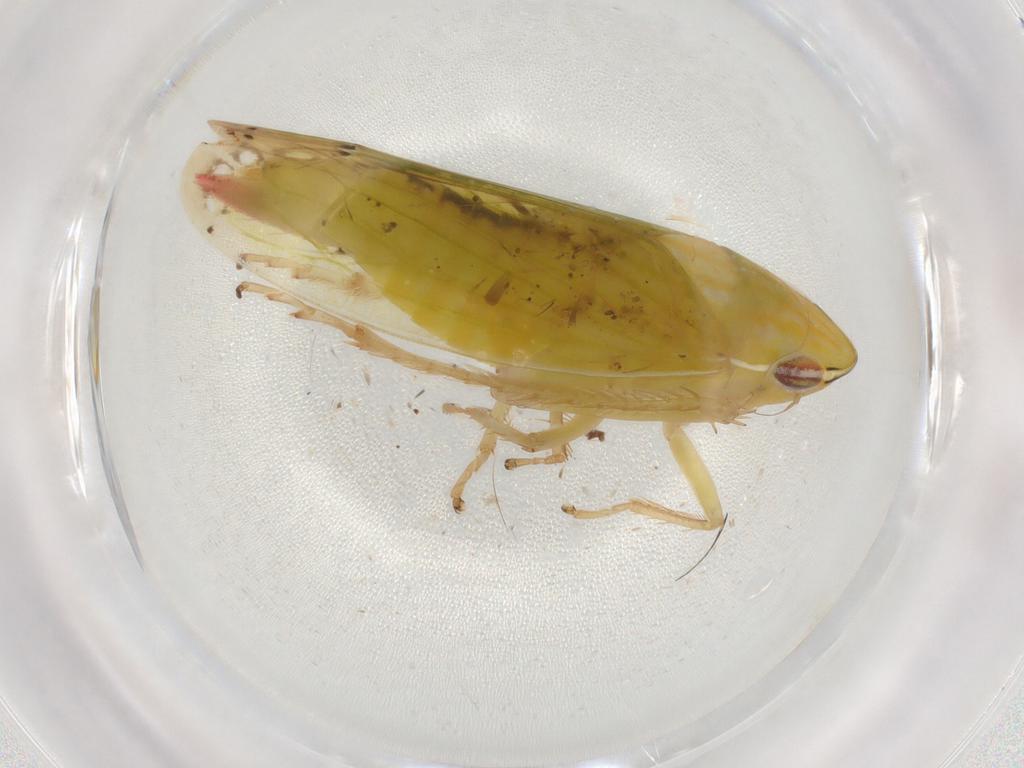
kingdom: Animalia
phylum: Arthropoda
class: Insecta
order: Hemiptera
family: Cicadellidae
